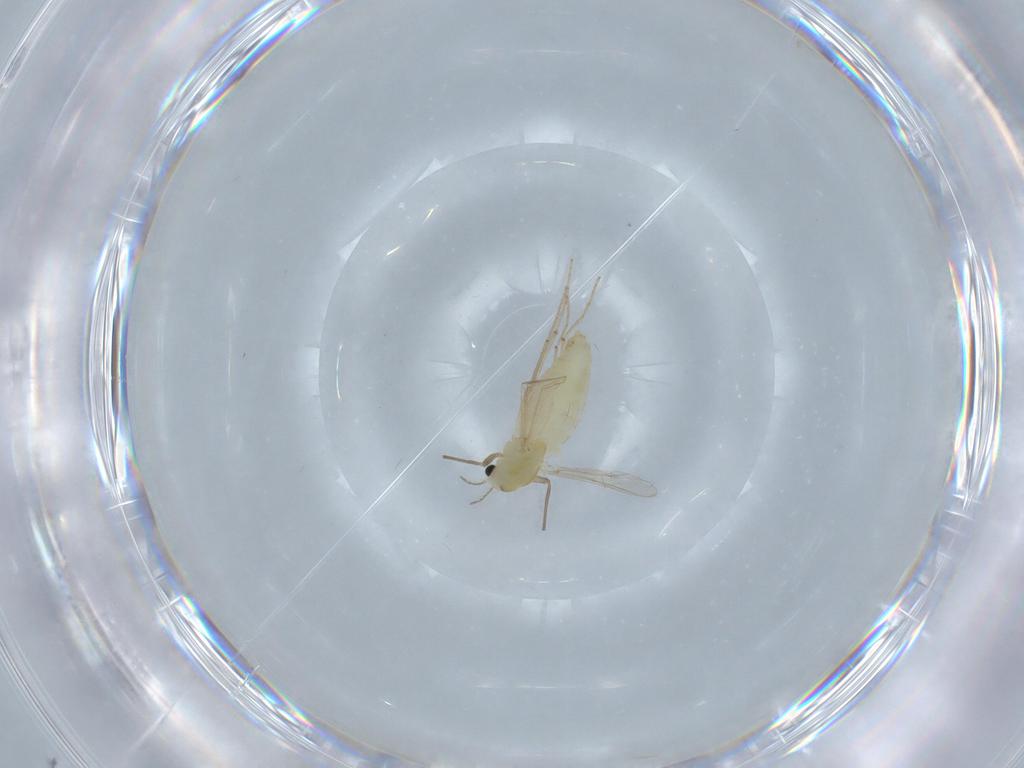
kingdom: Animalia
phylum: Arthropoda
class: Insecta
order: Diptera
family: Chironomidae
